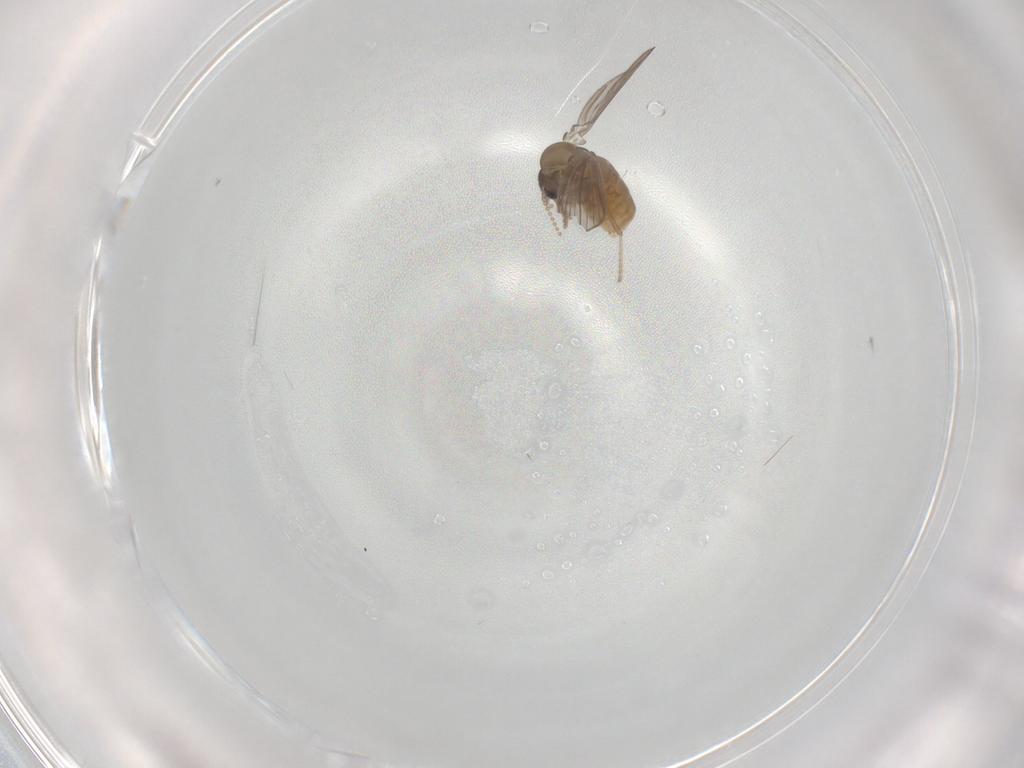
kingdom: Animalia
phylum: Arthropoda
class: Insecta
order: Diptera
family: Psychodidae
